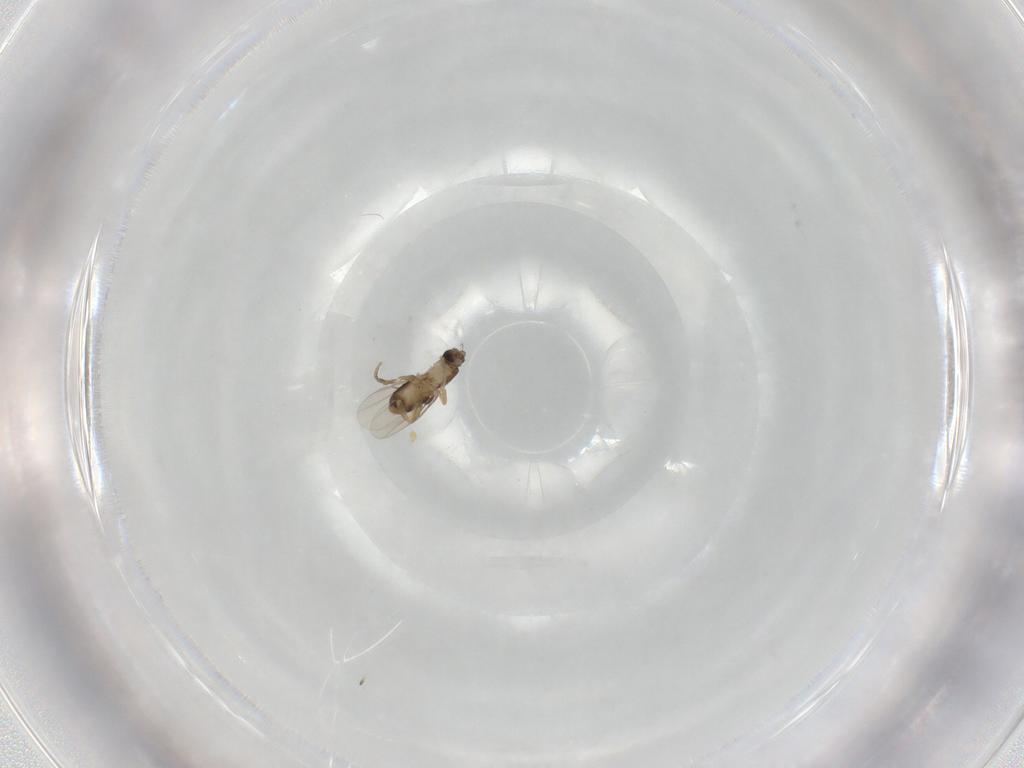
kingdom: Animalia
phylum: Arthropoda
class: Insecta
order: Diptera
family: Phoridae
